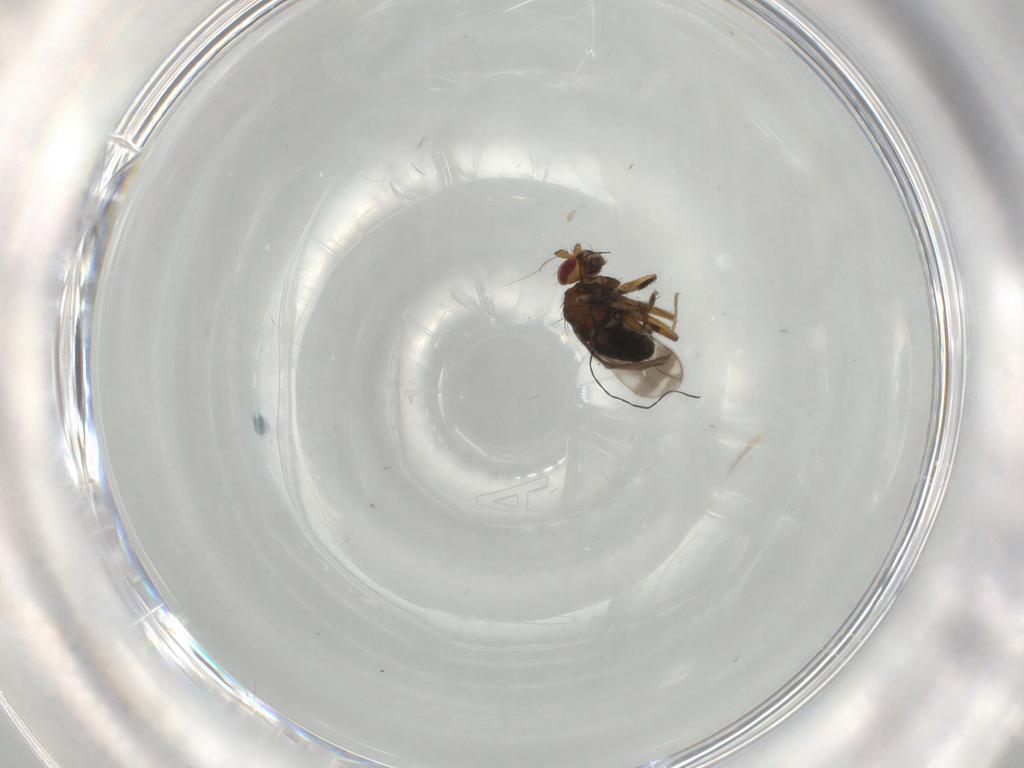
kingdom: Animalia
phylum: Arthropoda
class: Insecta
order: Diptera
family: Sphaeroceridae
